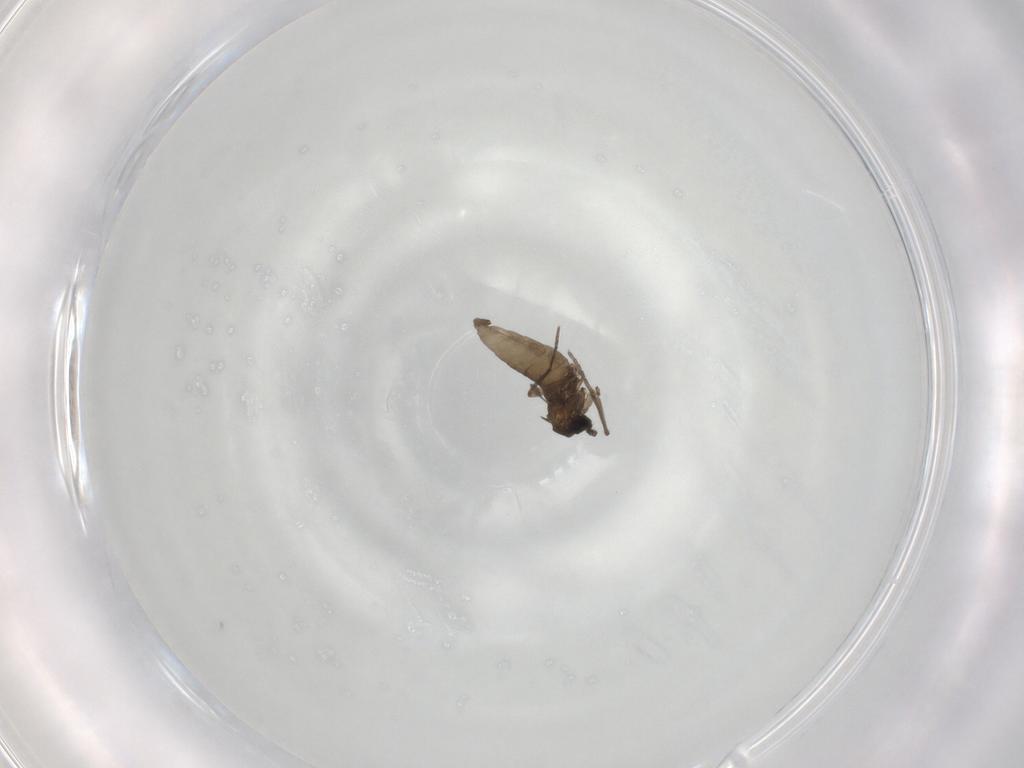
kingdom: Animalia
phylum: Arthropoda
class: Insecta
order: Diptera
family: Sciaridae
